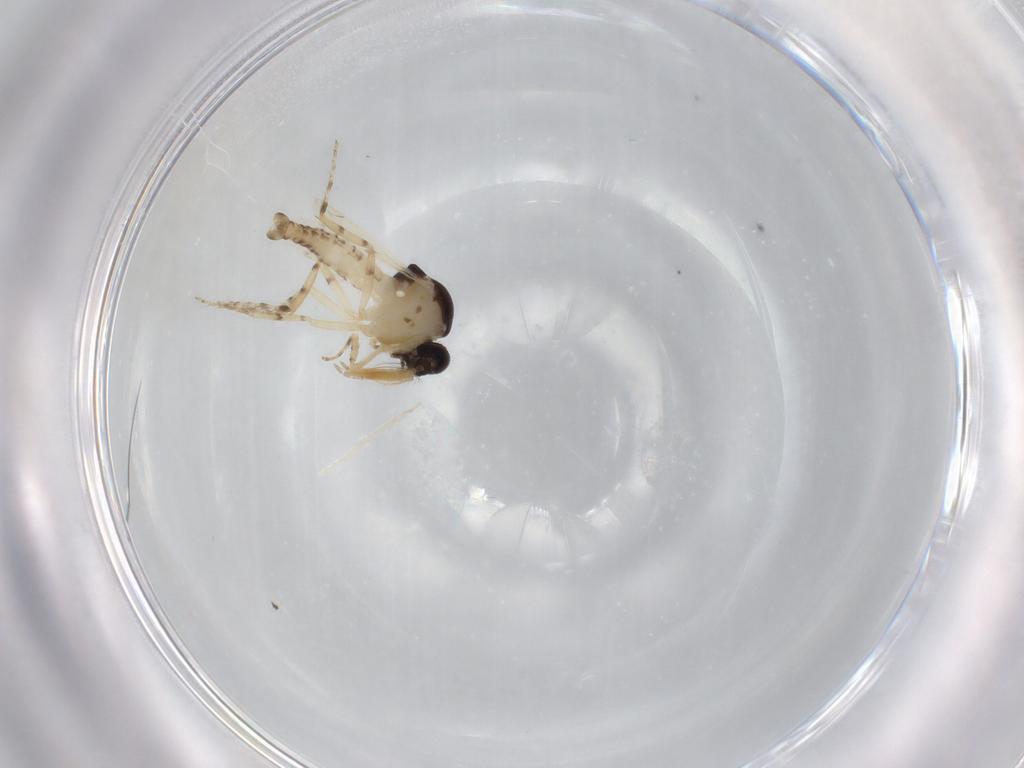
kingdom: Animalia
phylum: Arthropoda
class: Insecta
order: Diptera
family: Ceratopogonidae
